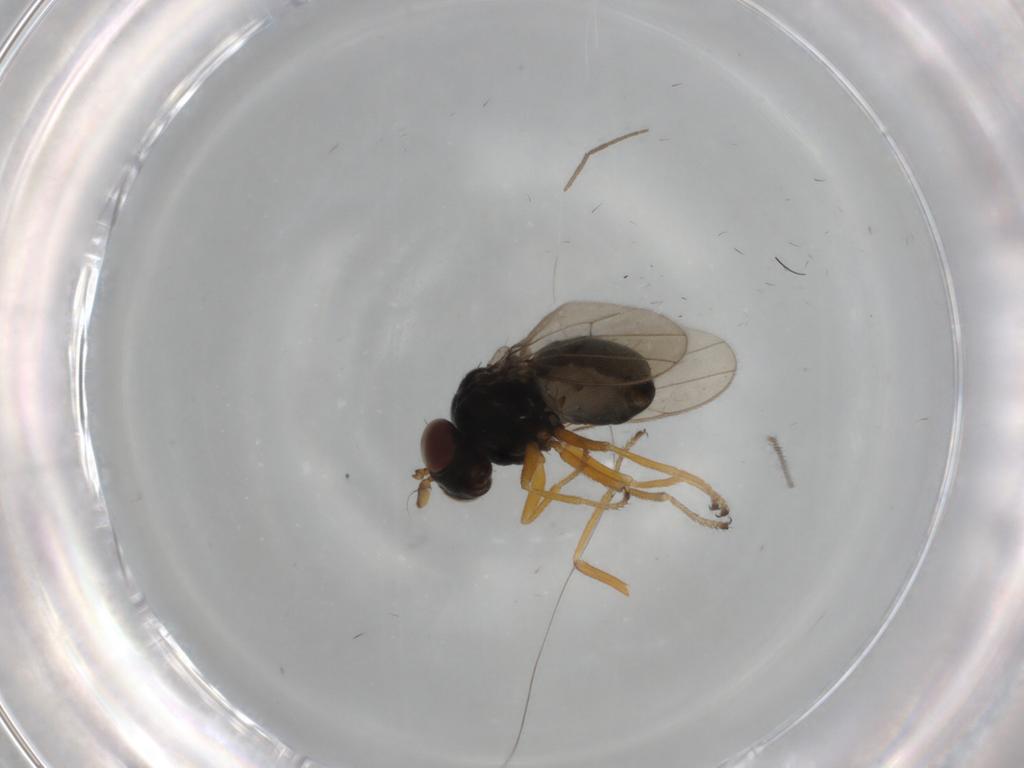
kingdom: Animalia
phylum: Arthropoda
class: Insecta
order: Diptera
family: Ephydridae
